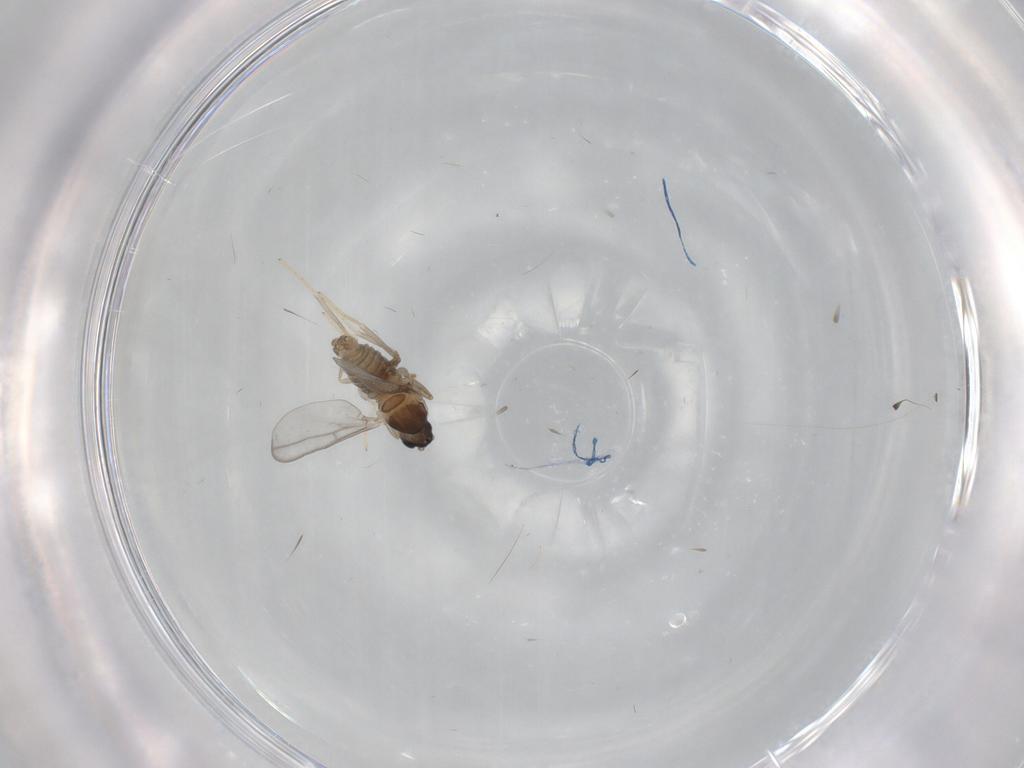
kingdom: Animalia
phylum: Arthropoda
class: Insecta
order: Diptera
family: Cecidomyiidae
